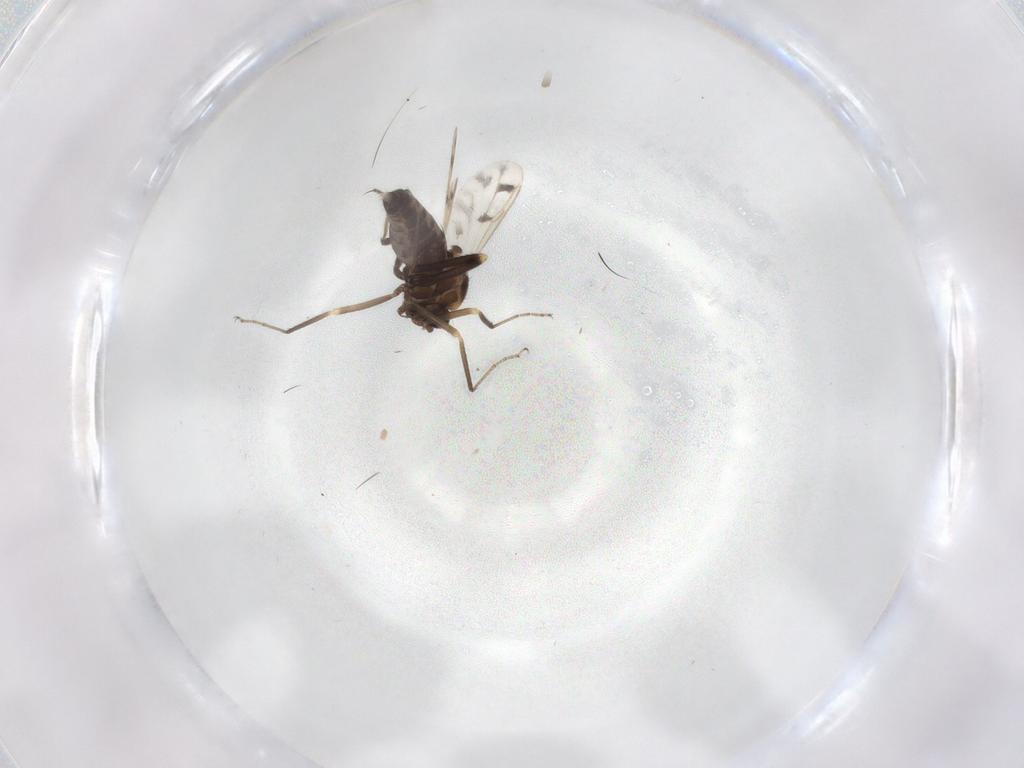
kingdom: Animalia
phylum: Arthropoda
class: Insecta
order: Diptera
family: Ceratopogonidae
